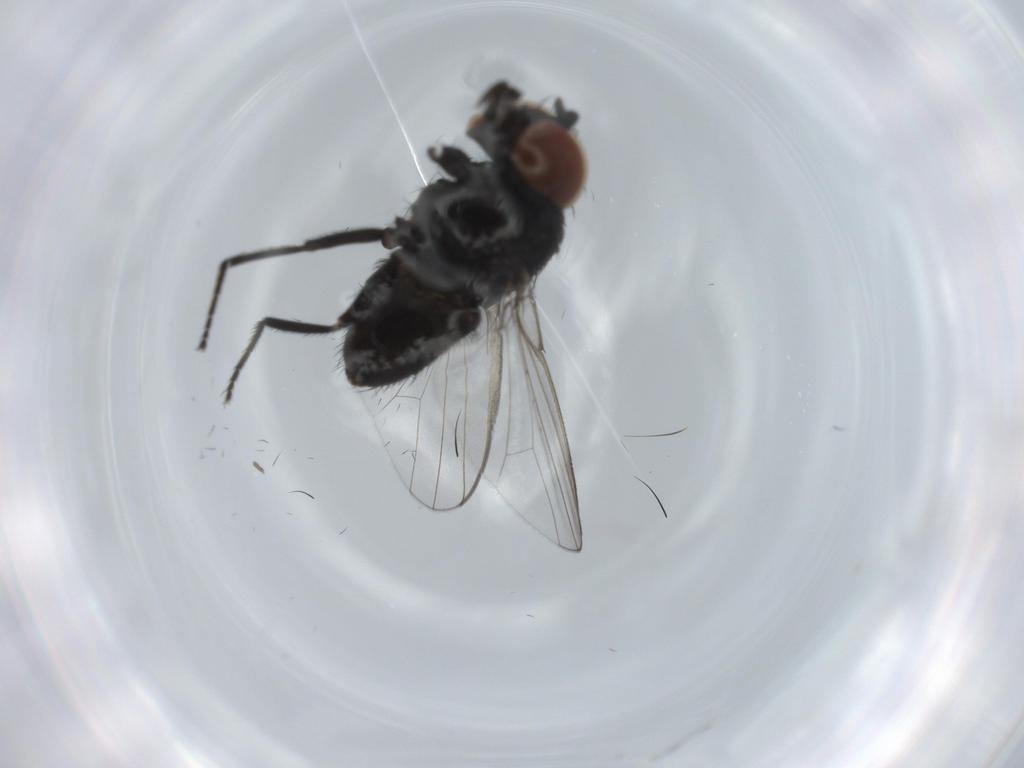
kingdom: Animalia
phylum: Arthropoda
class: Insecta
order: Diptera
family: Milichiidae
